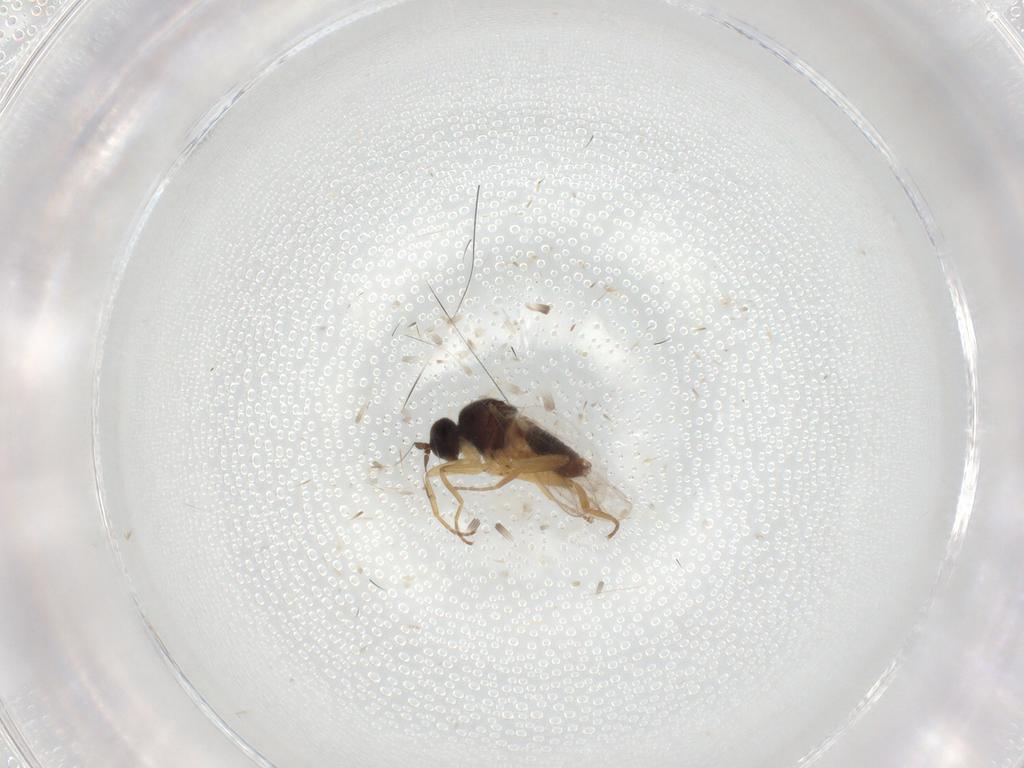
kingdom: Animalia
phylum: Arthropoda
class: Insecta
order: Diptera
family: Hybotidae
